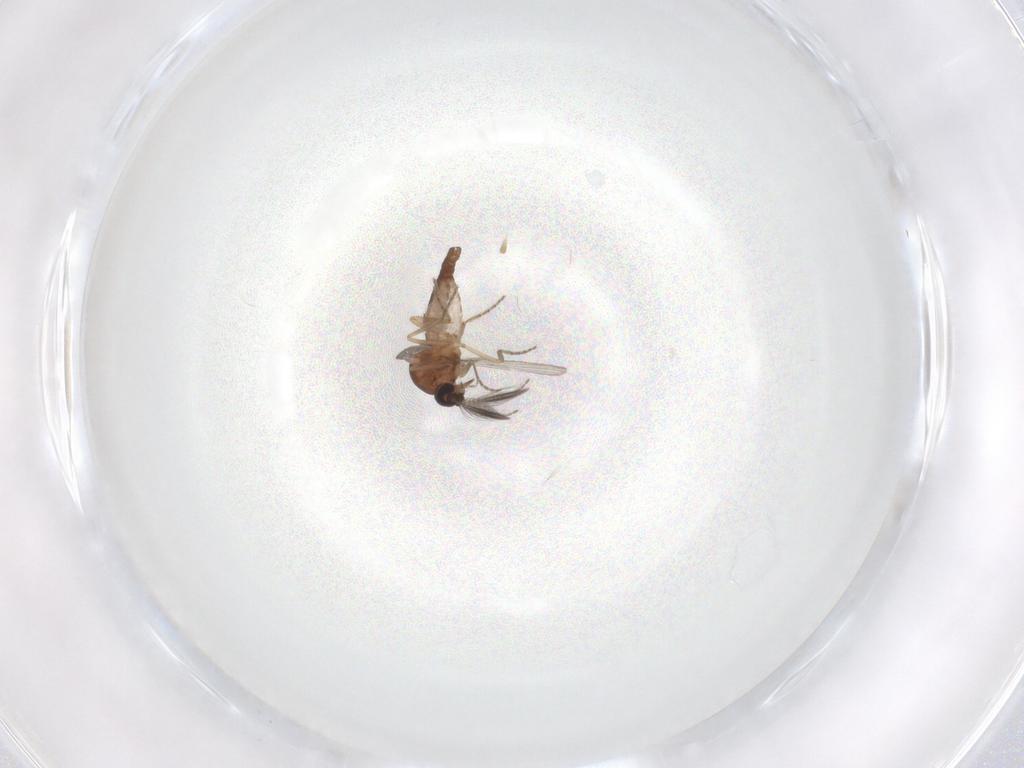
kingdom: Animalia
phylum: Arthropoda
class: Insecta
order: Diptera
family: Ceratopogonidae
